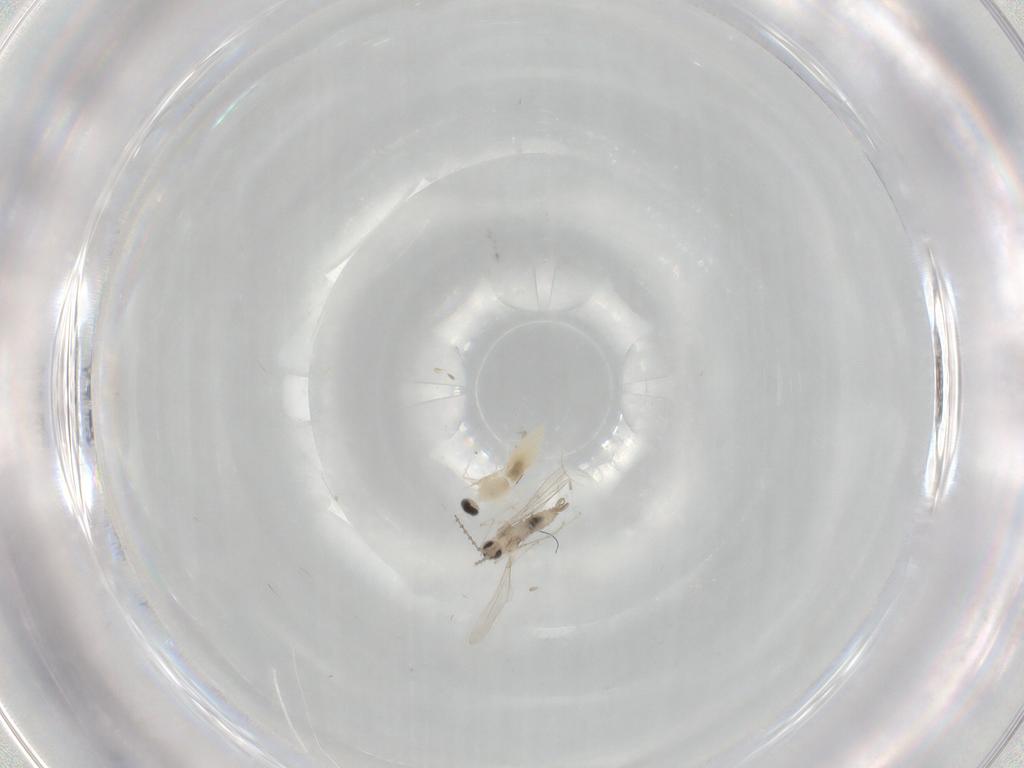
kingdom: Animalia
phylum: Arthropoda
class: Insecta
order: Diptera
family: Cecidomyiidae
